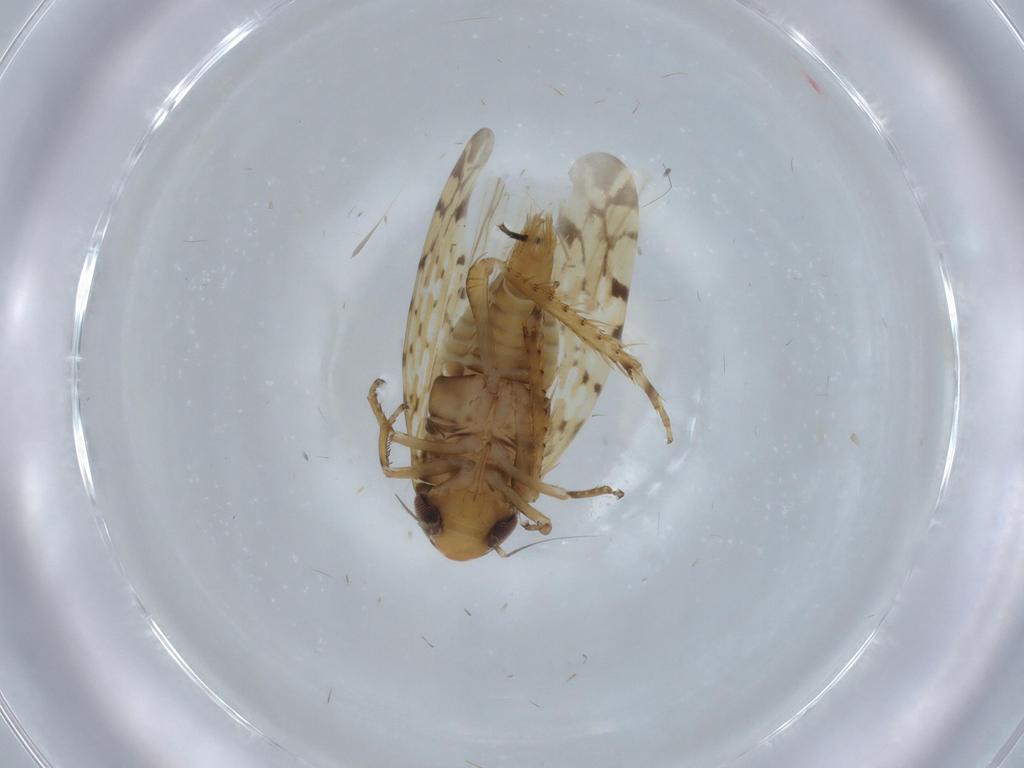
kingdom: Animalia
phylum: Arthropoda
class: Insecta
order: Hemiptera
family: Cicadellidae
